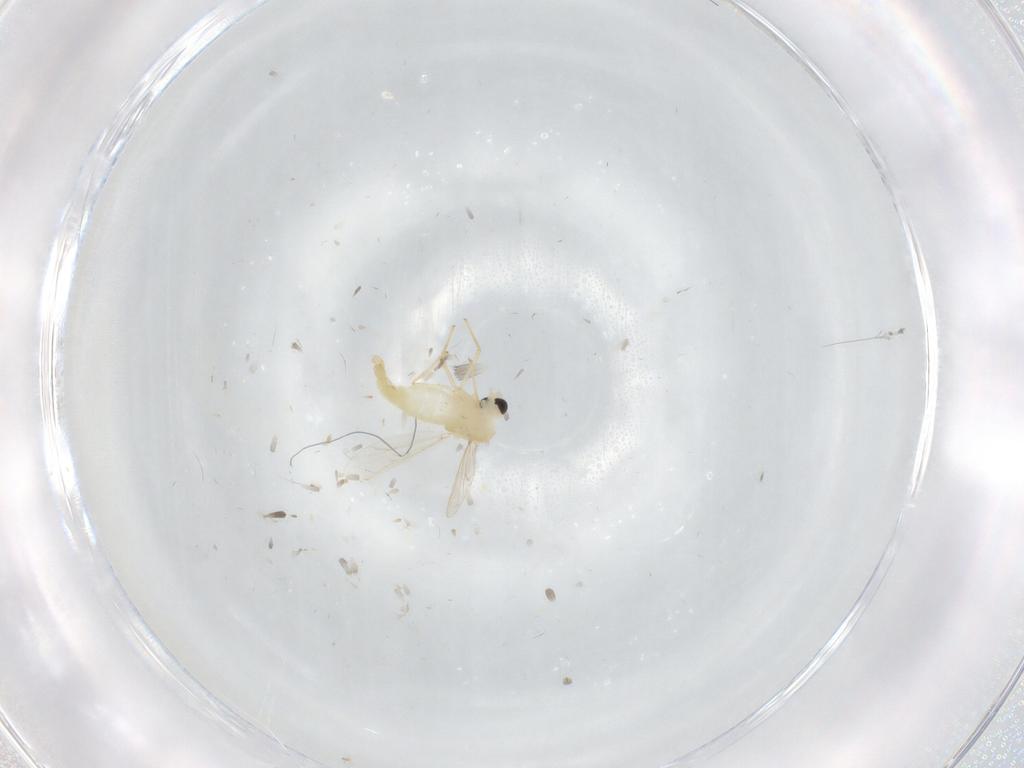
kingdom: Animalia
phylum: Arthropoda
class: Insecta
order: Diptera
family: Chironomidae
